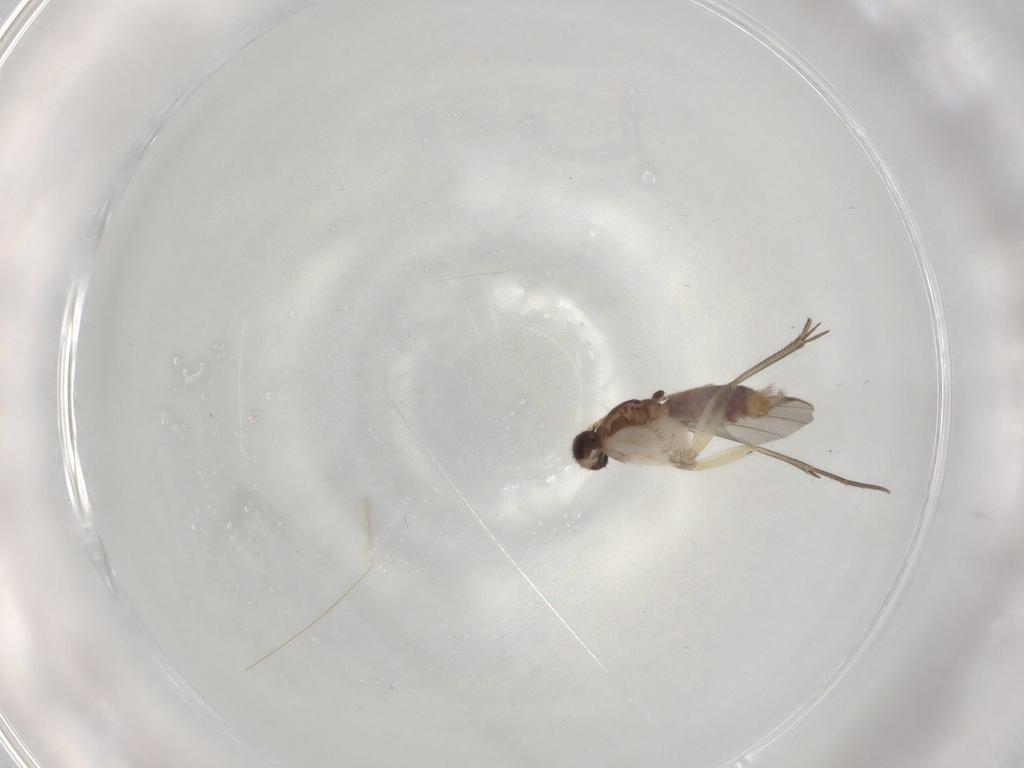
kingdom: Animalia
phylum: Arthropoda
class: Insecta
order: Diptera
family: Mycetophilidae
